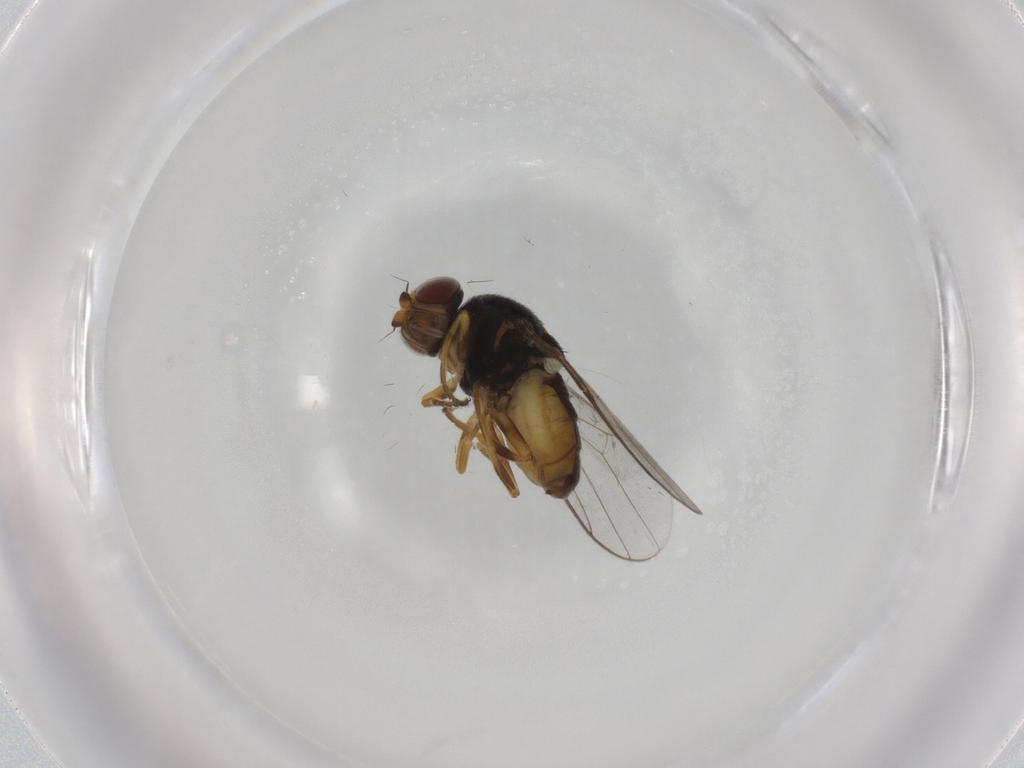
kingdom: Animalia
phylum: Arthropoda
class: Insecta
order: Diptera
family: Chloropidae
